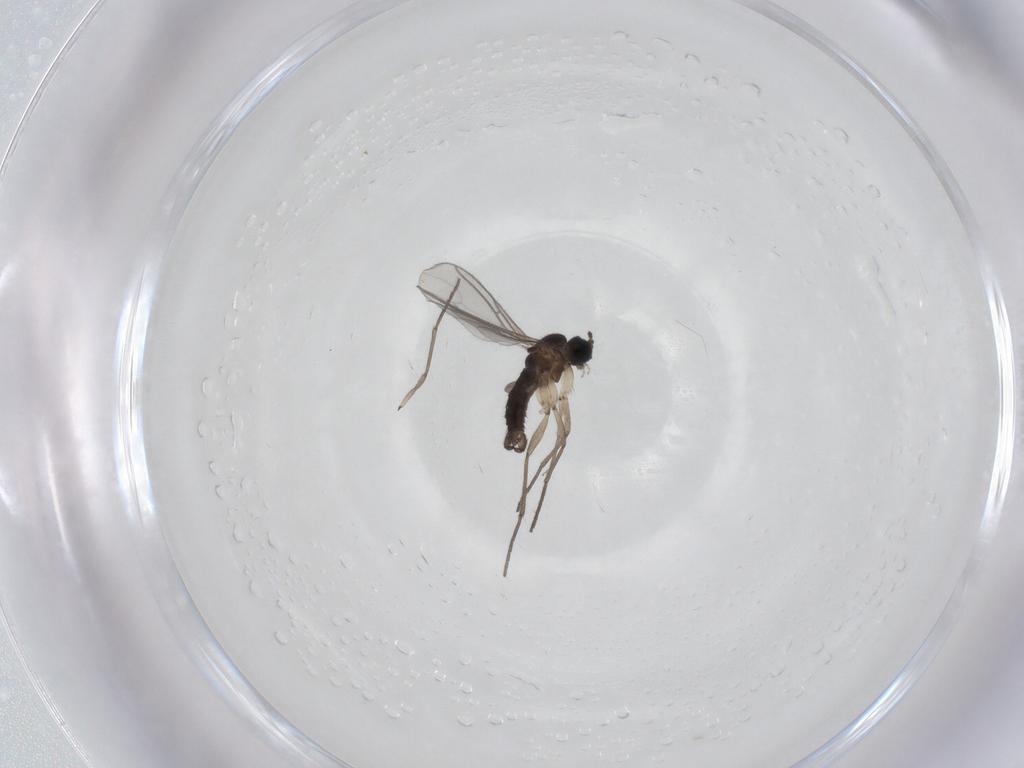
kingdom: Animalia
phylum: Arthropoda
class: Insecta
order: Diptera
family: Sciaridae
